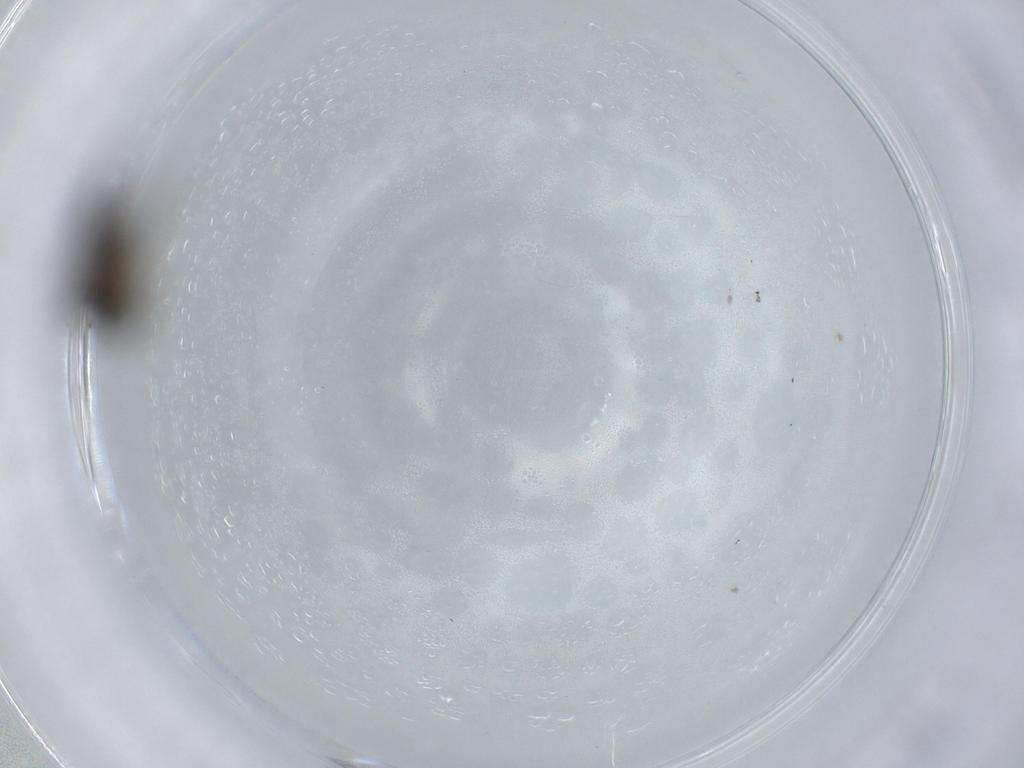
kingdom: Animalia
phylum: Arthropoda
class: Insecta
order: Diptera
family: Sciaridae
